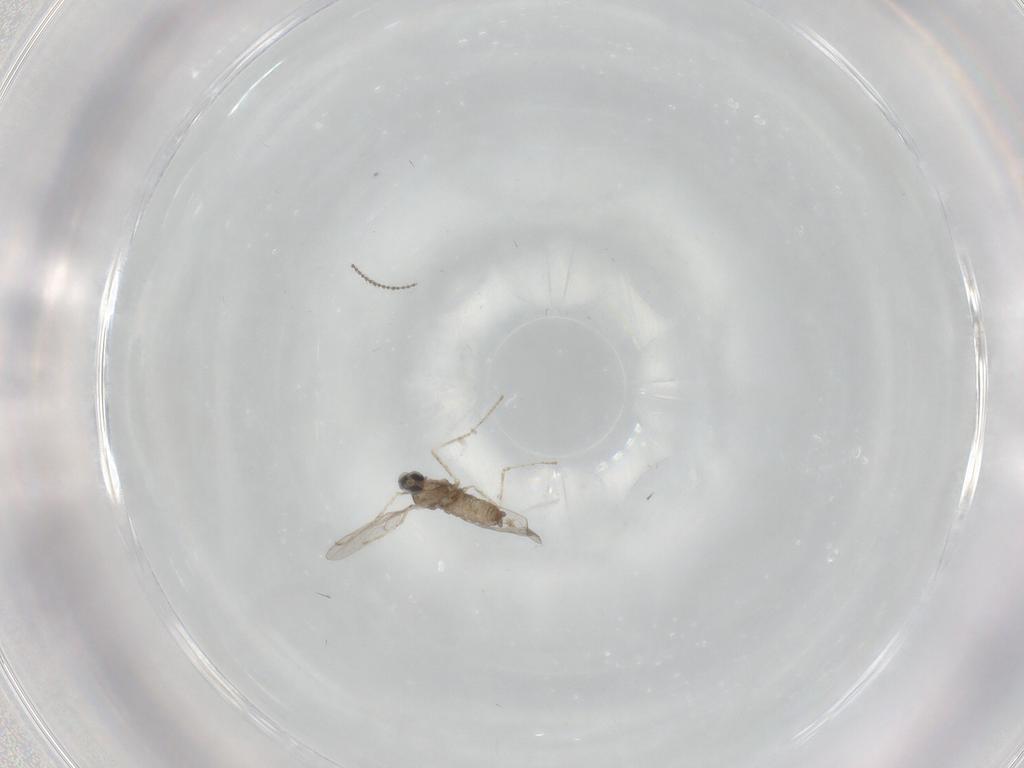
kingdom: Animalia
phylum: Arthropoda
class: Insecta
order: Diptera
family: Cecidomyiidae
